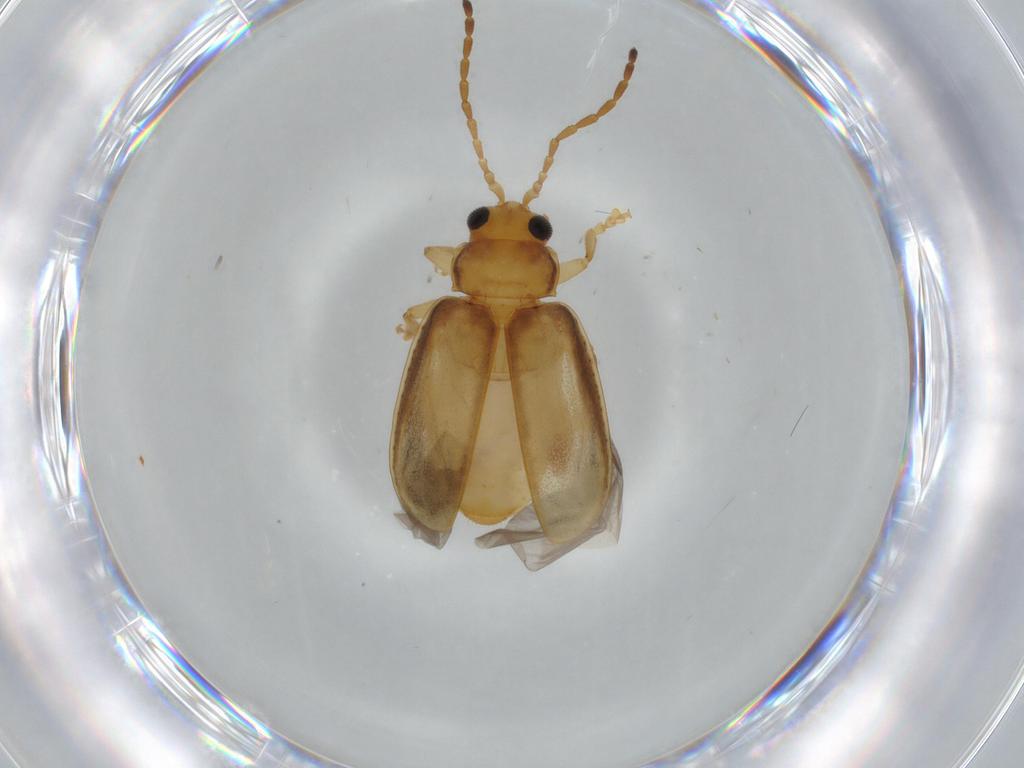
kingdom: Animalia
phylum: Arthropoda
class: Insecta
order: Coleoptera
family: Chrysomelidae
